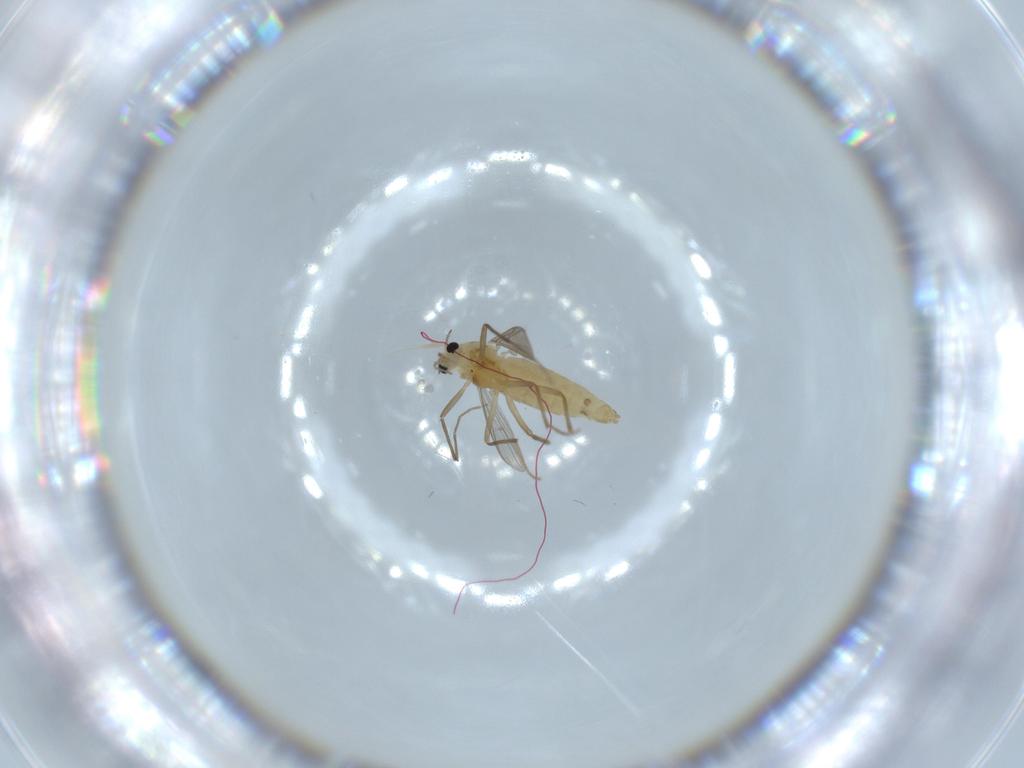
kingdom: Animalia
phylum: Arthropoda
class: Insecta
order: Diptera
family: Chironomidae
